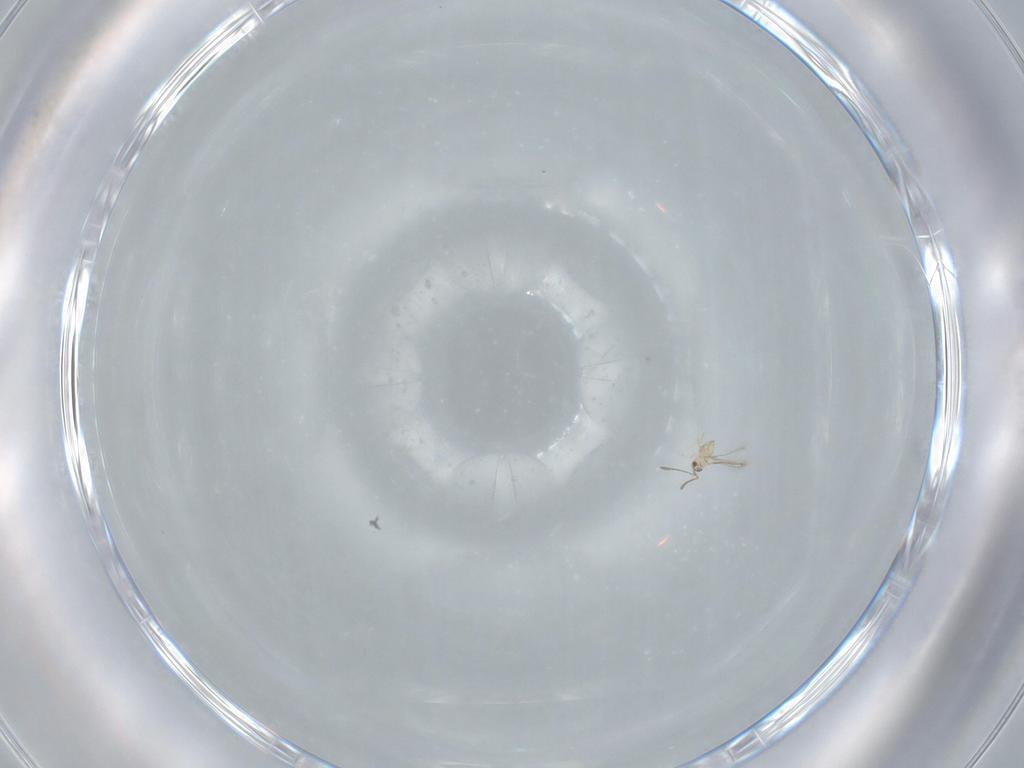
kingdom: Animalia
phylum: Arthropoda
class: Insecta
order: Hymenoptera
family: Mymaridae
